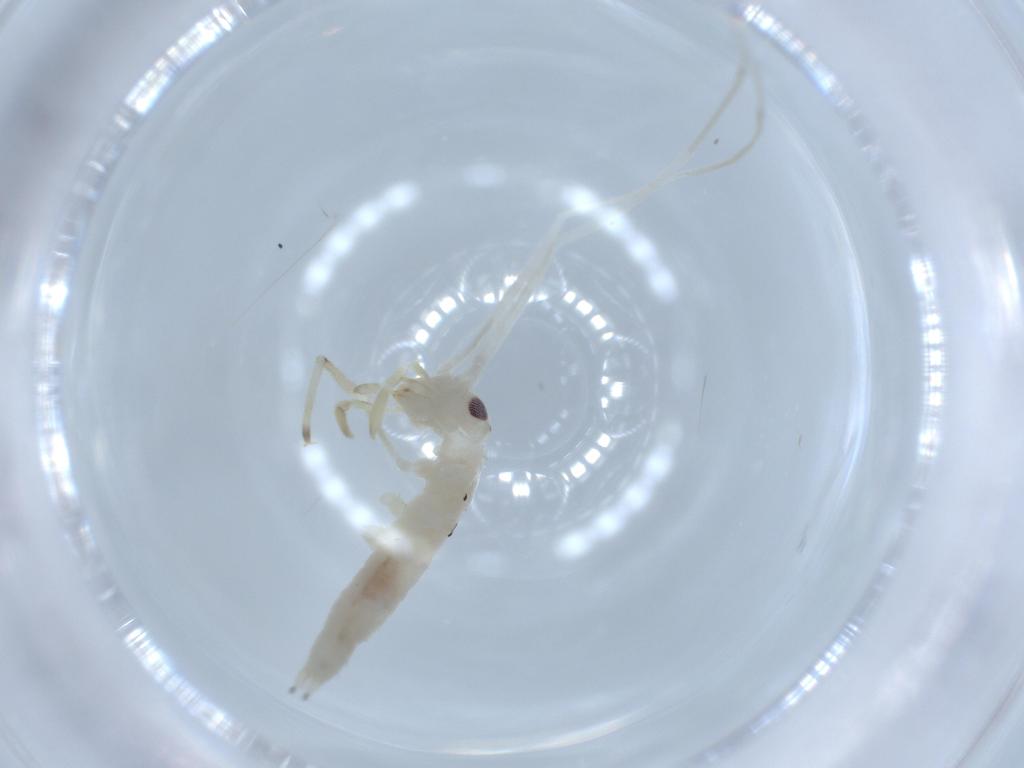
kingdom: Animalia
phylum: Arthropoda
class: Insecta
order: Orthoptera
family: Oecanthidae
